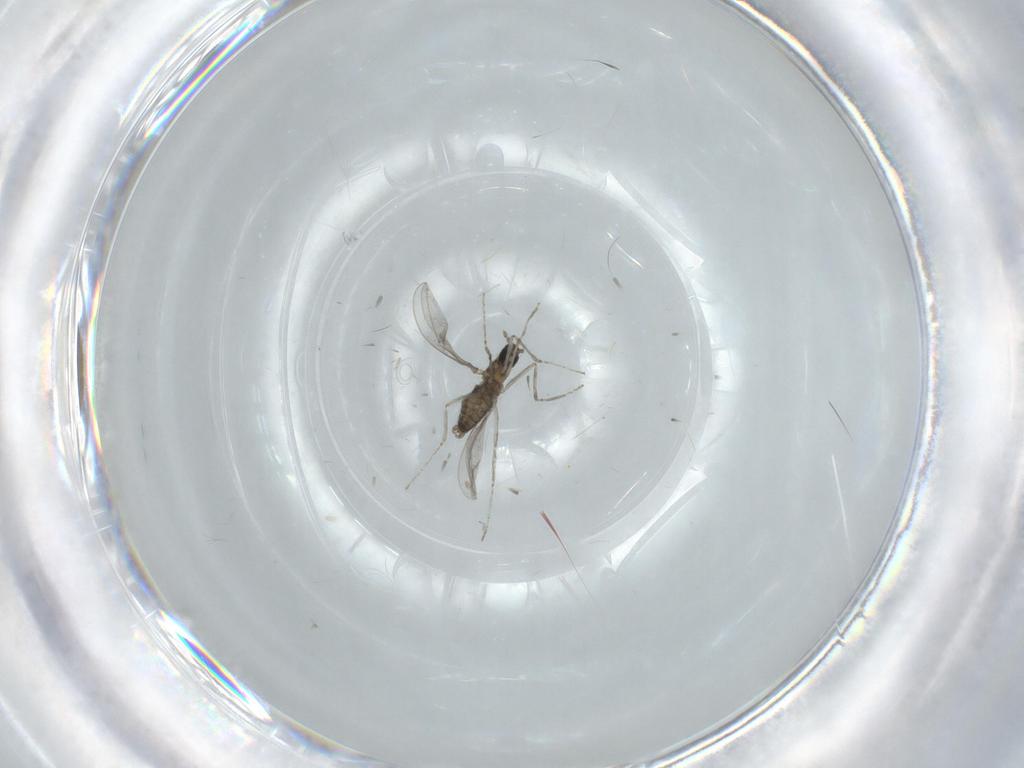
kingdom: Animalia
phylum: Arthropoda
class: Insecta
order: Diptera
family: Cecidomyiidae
